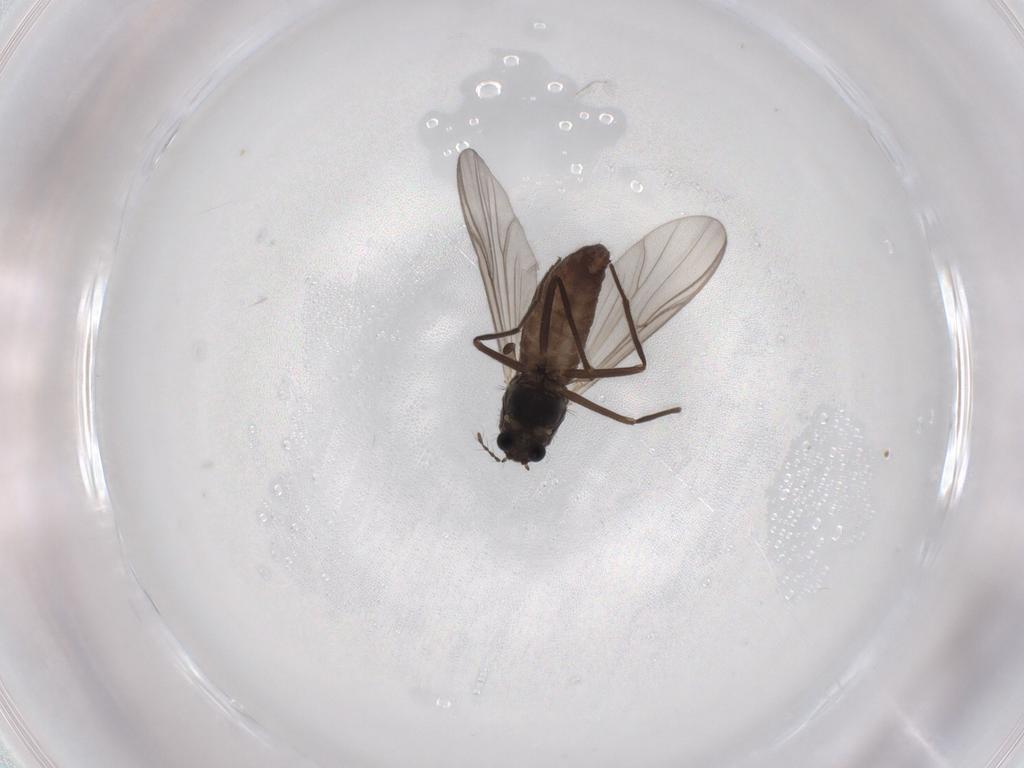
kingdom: Animalia
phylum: Arthropoda
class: Insecta
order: Diptera
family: Chironomidae
